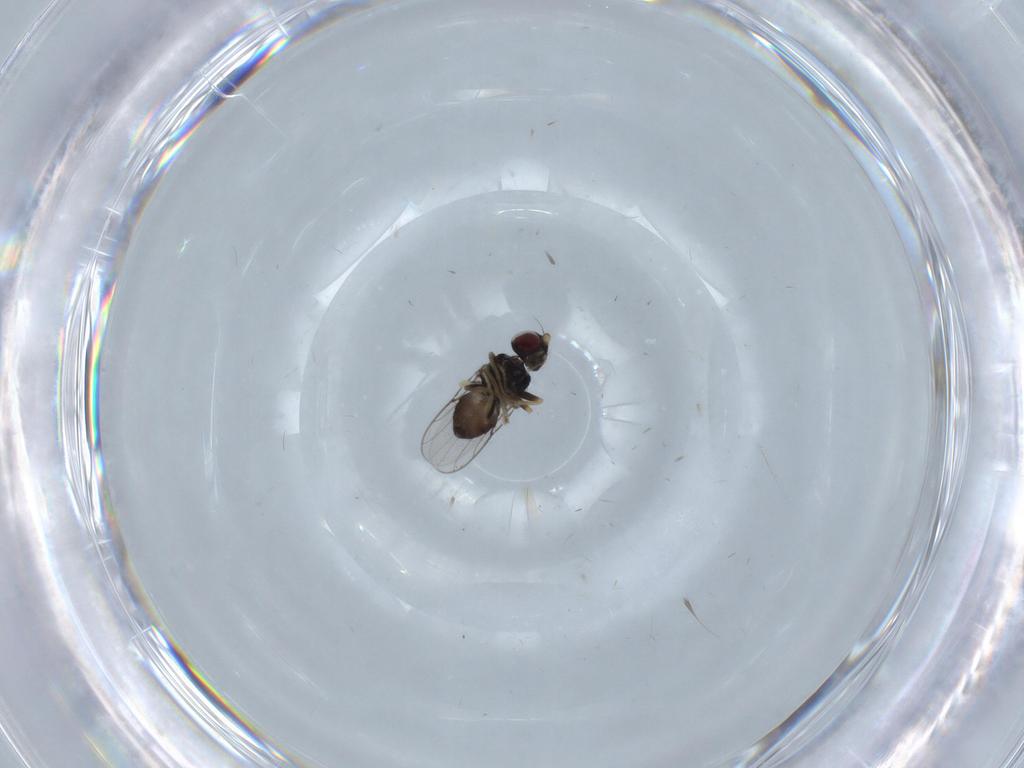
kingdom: Animalia
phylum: Arthropoda
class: Insecta
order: Diptera
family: Chloropidae
